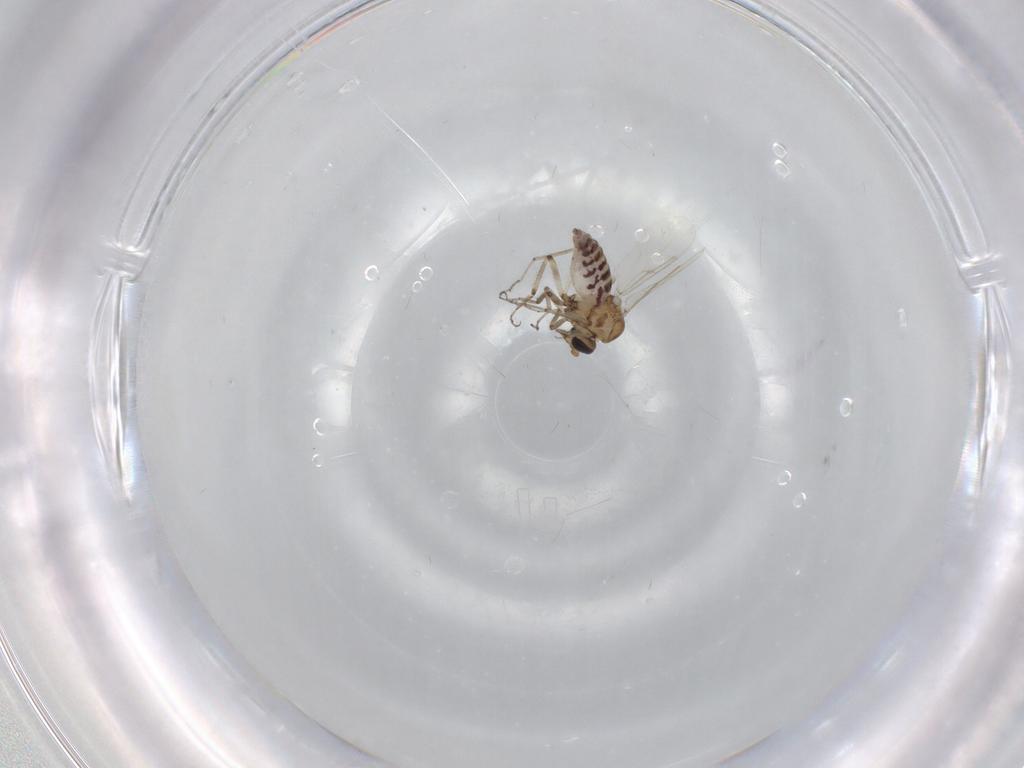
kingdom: Animalia
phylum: Arthropoda
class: Insecta
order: Diptera
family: Ceratopogonidae
